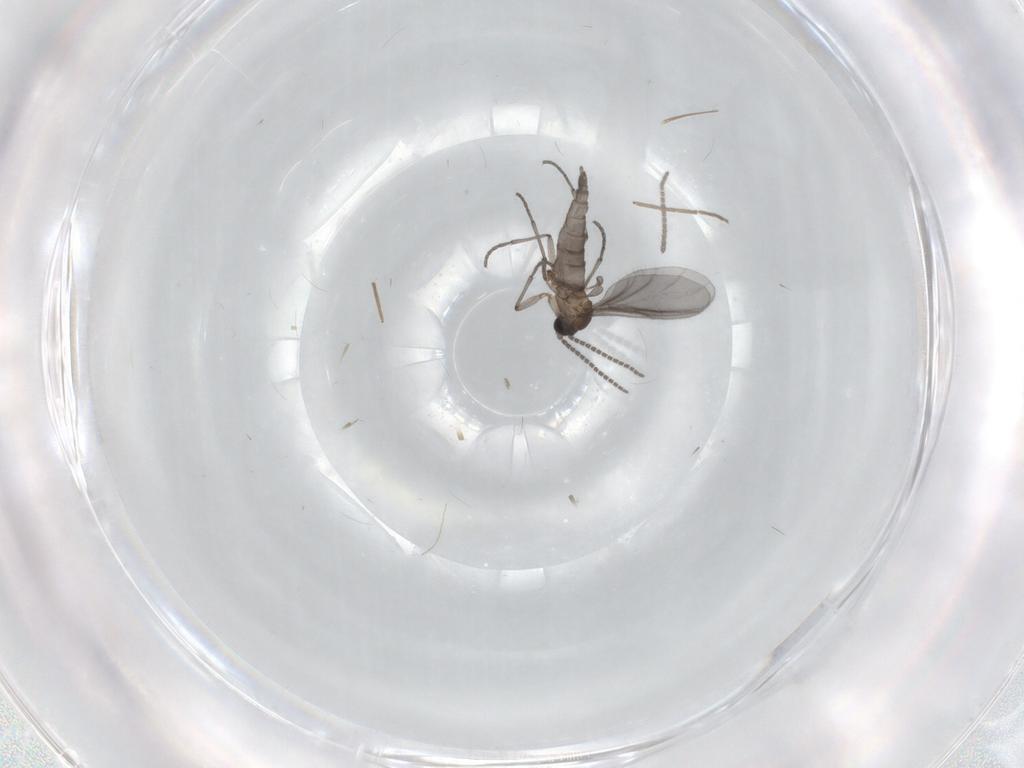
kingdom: Animalia
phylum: Arthropoda
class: Insecta
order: Diptera
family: Sciaridae
